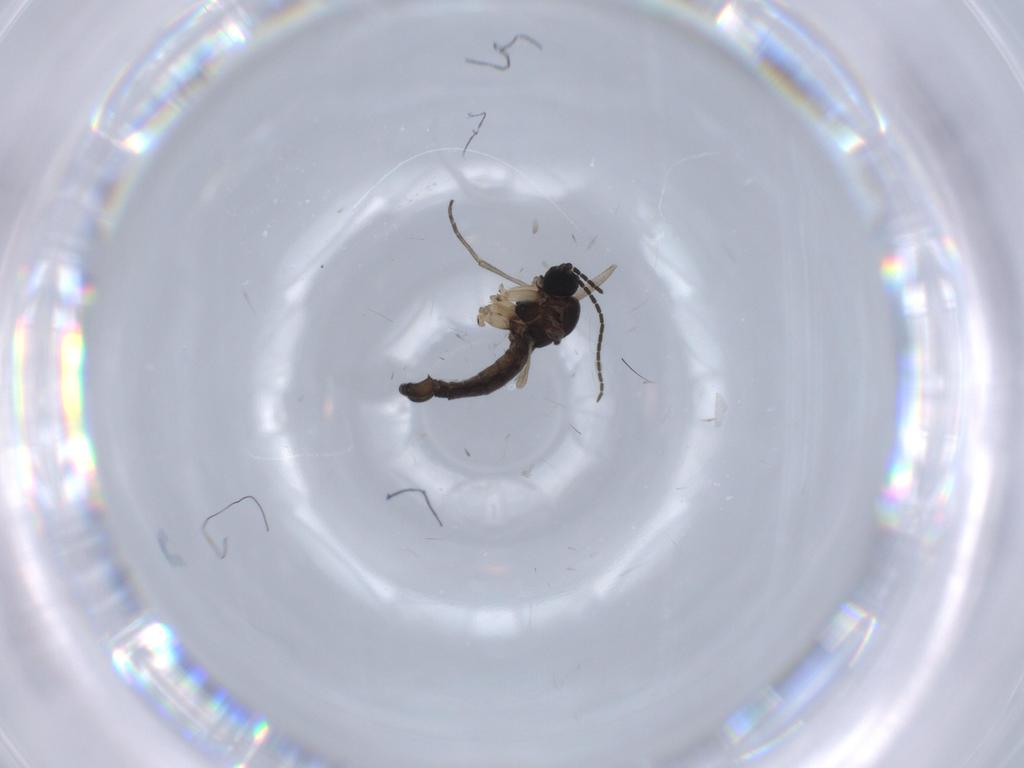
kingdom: Animalia
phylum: Arthropoda
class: Insecta
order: Diptera
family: Sciaridae
